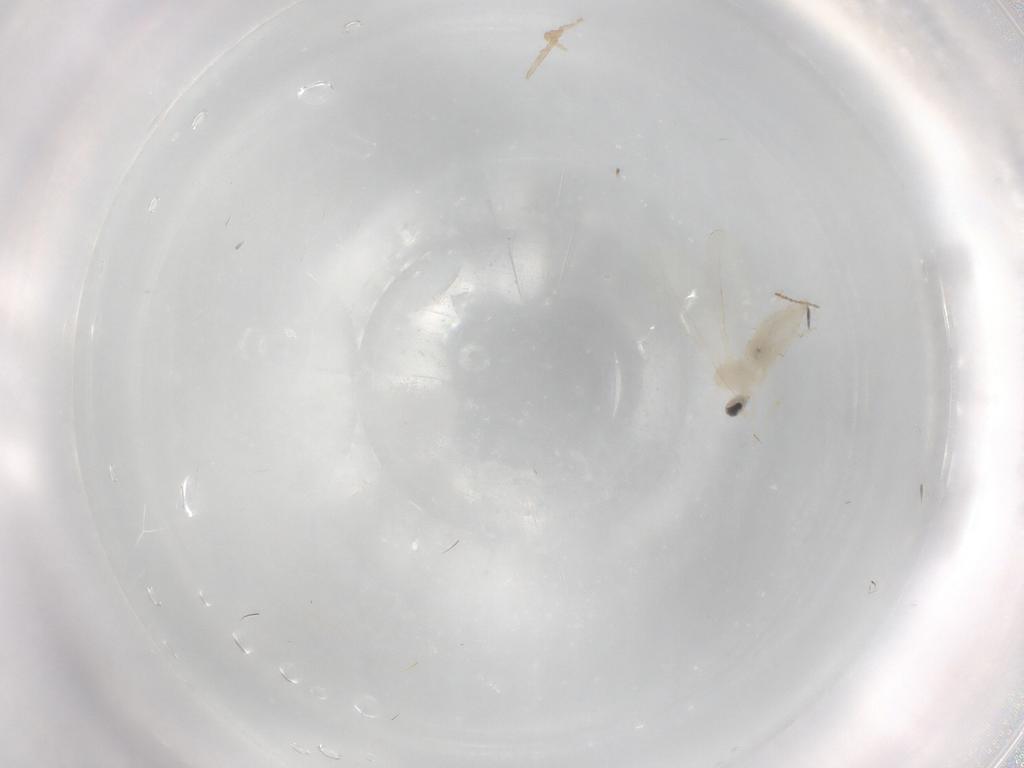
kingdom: Animalia
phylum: Arthropoda
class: Insecta
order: Diptera
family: Cecidomyiidae
